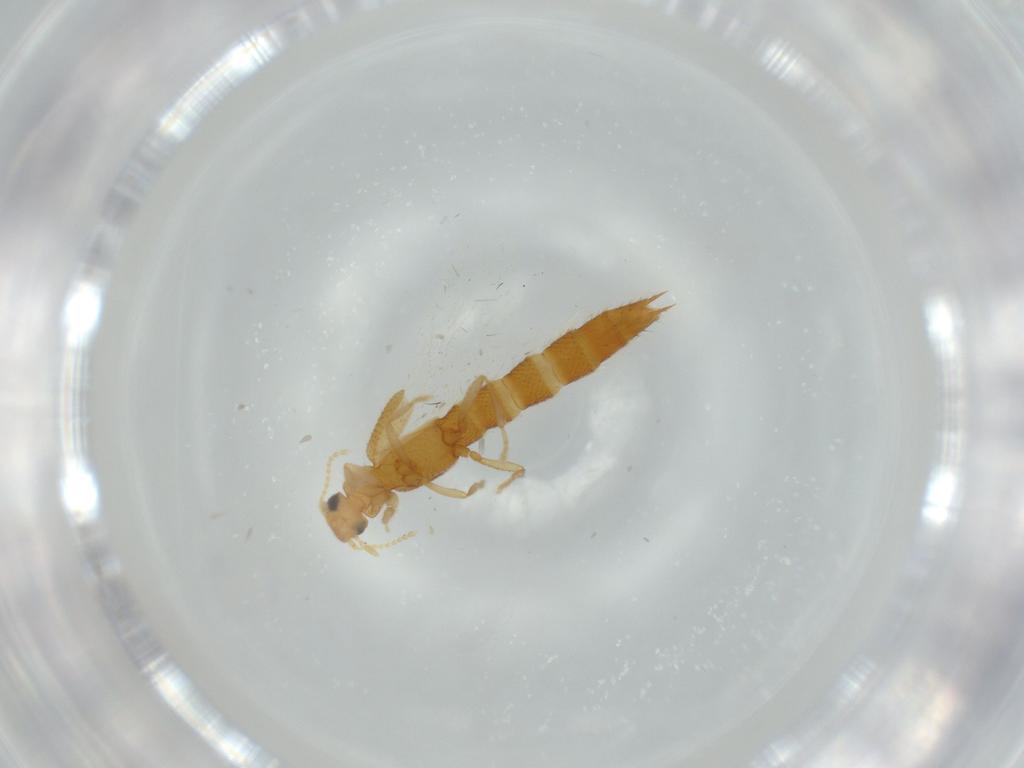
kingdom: Animalia
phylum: Arthropoda
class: Insecta
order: Coleoptera
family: Staphylinidae
